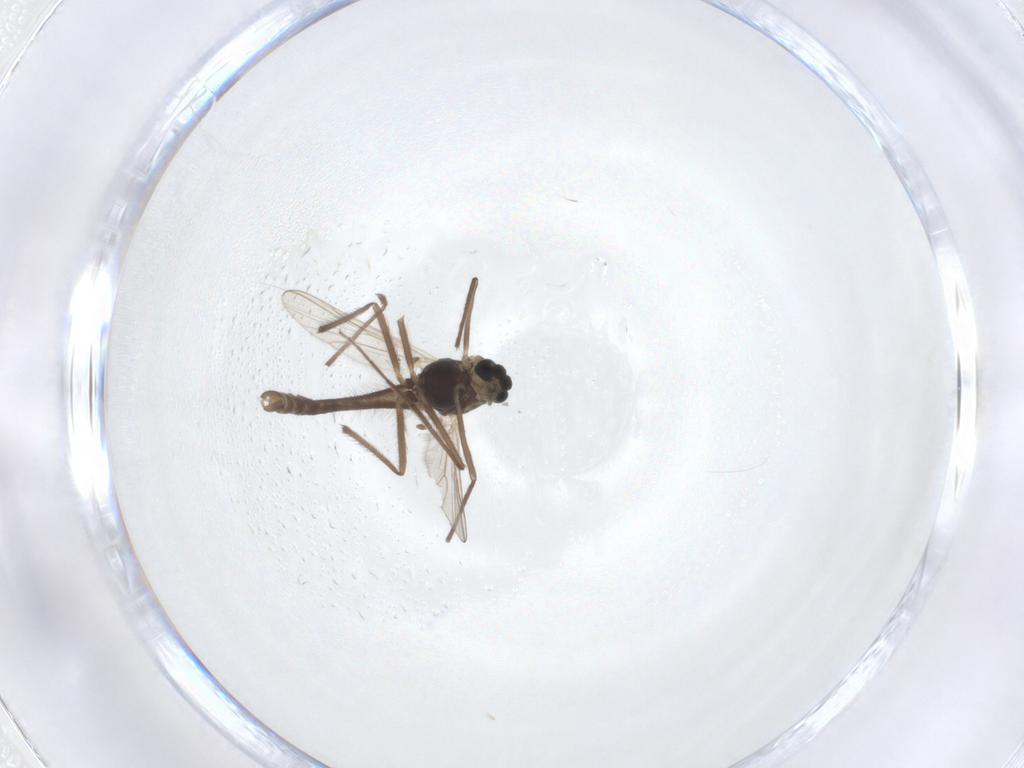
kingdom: Animalia
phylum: Arthropoda
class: Insecta
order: Diptera
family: Chironomidae
